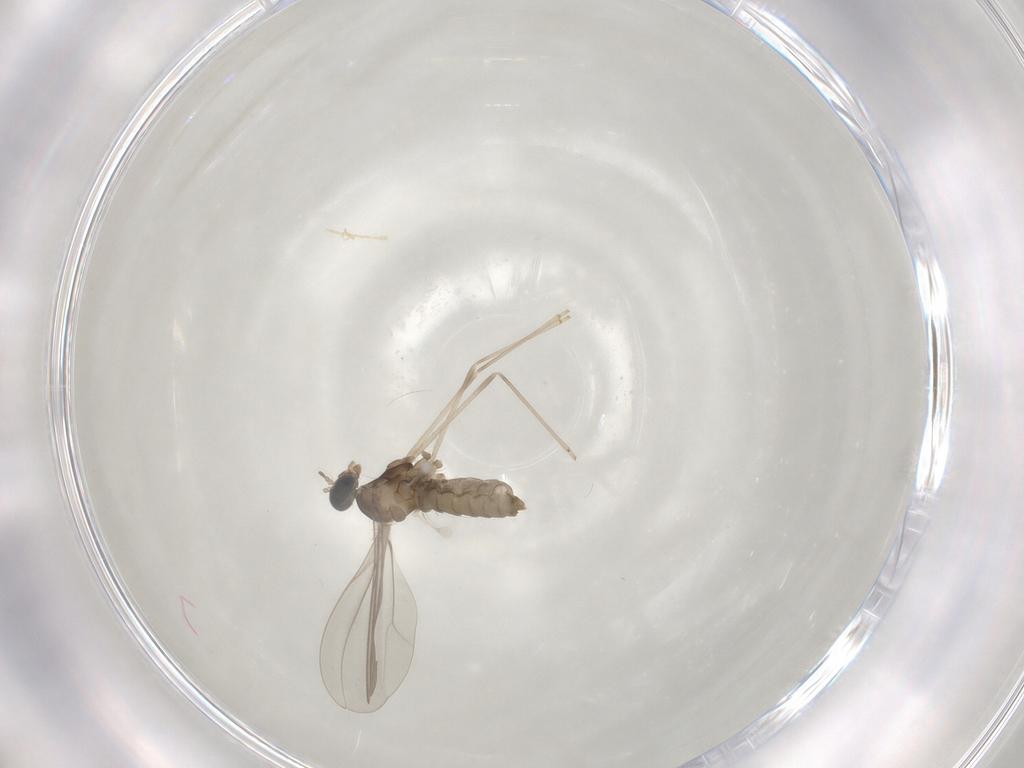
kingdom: Animalia
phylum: Arthropoda
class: Insecta
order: Diptera
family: Cecidomyiidae
